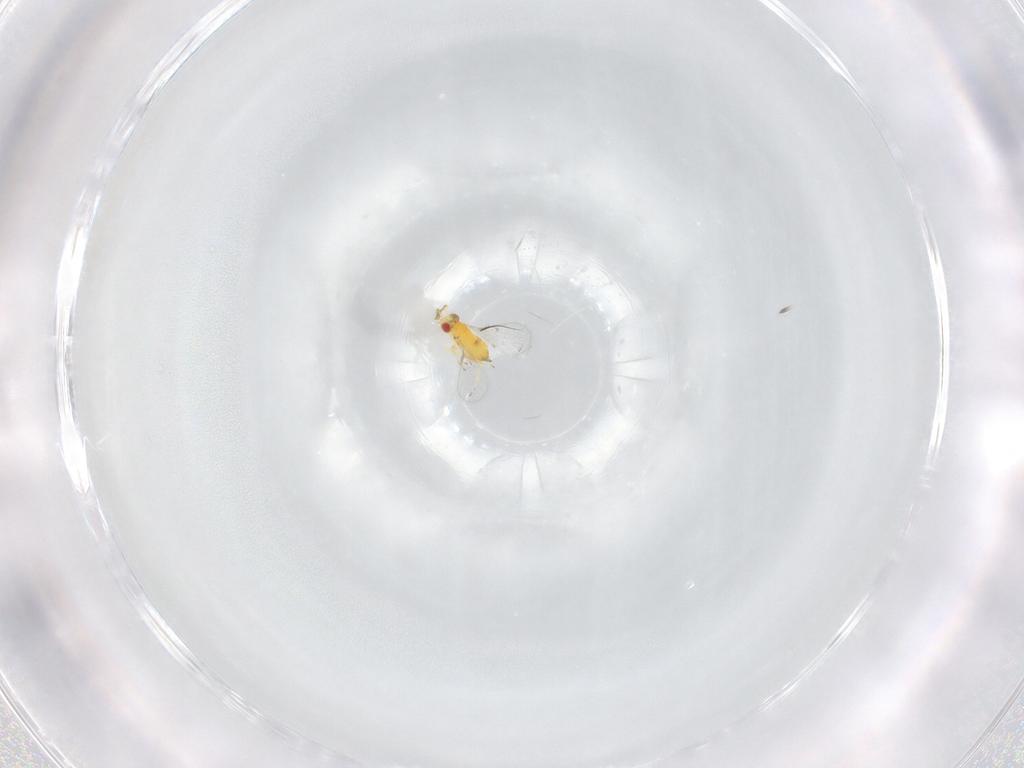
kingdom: Animalia
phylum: Arthropoda
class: Insecta
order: Hymenoptera
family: Trichogrammatidae
